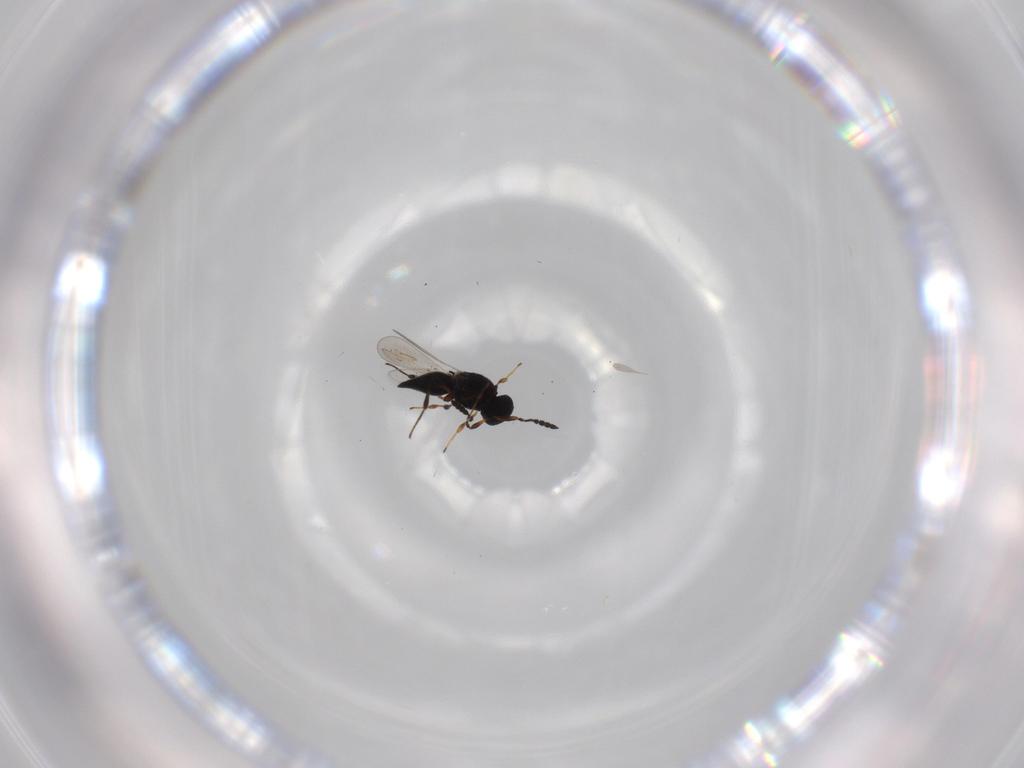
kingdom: Animalia
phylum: Arthropoda
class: Insecta
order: Hymenoptera
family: Platygastridae
